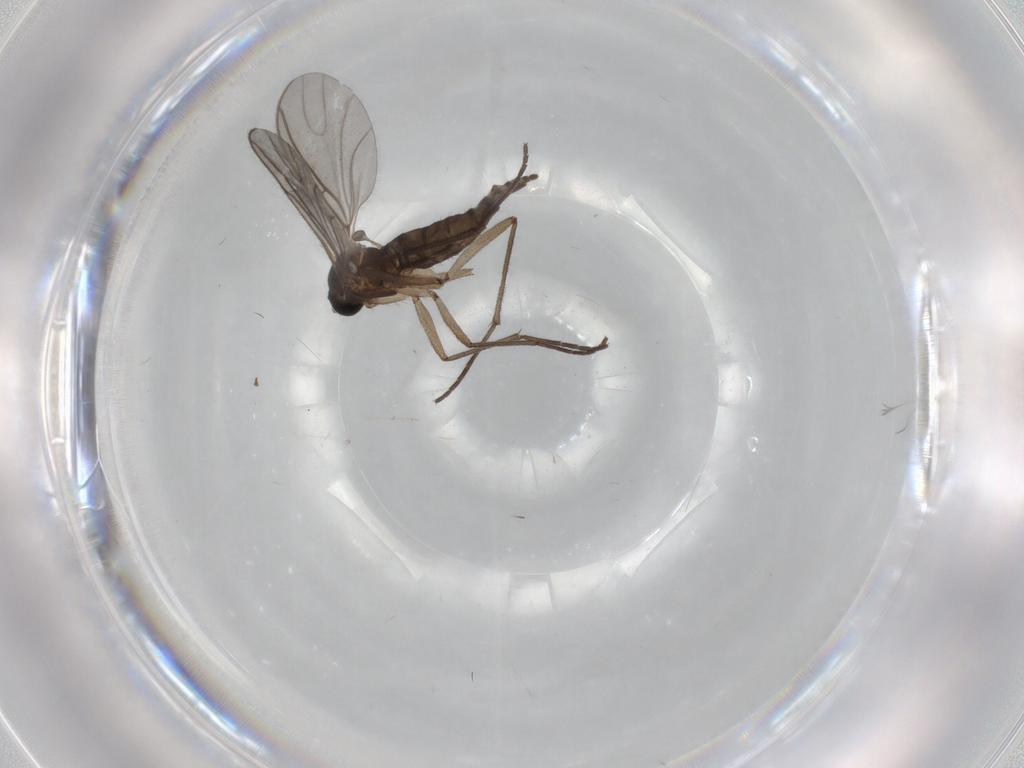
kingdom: Animalia
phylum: Arthropoda
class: Insecta
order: Diptera
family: Sciaridae
